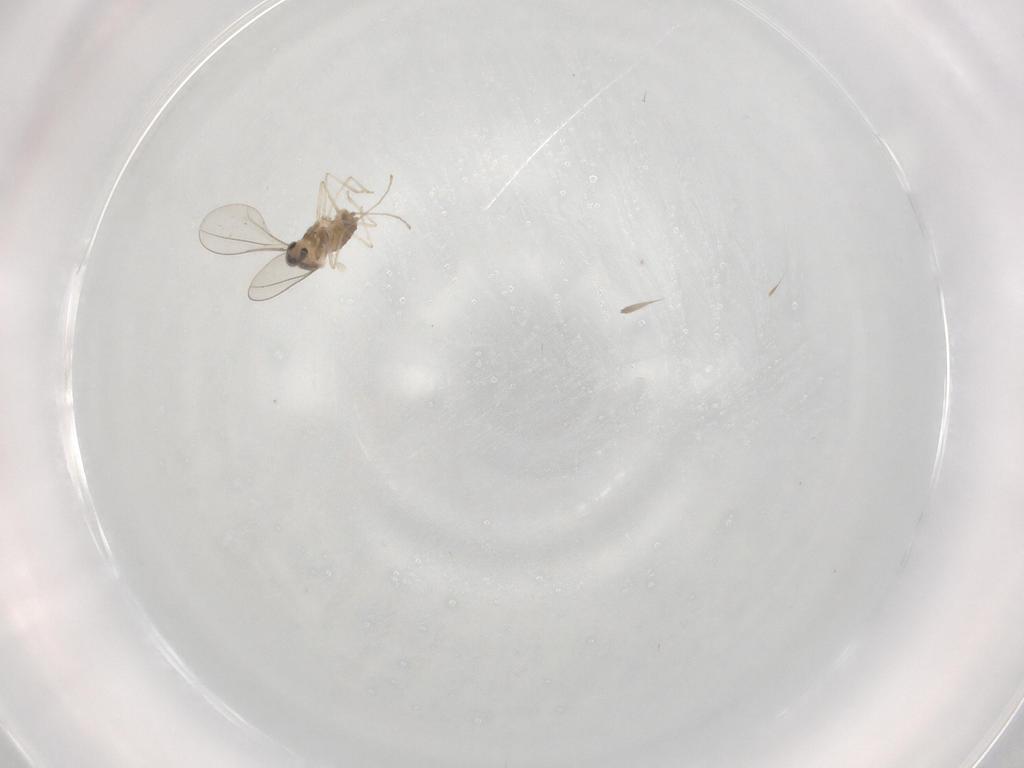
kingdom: Animalia
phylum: Arthropoda
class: Insecta
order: Diptera
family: Cecidomyiidae
